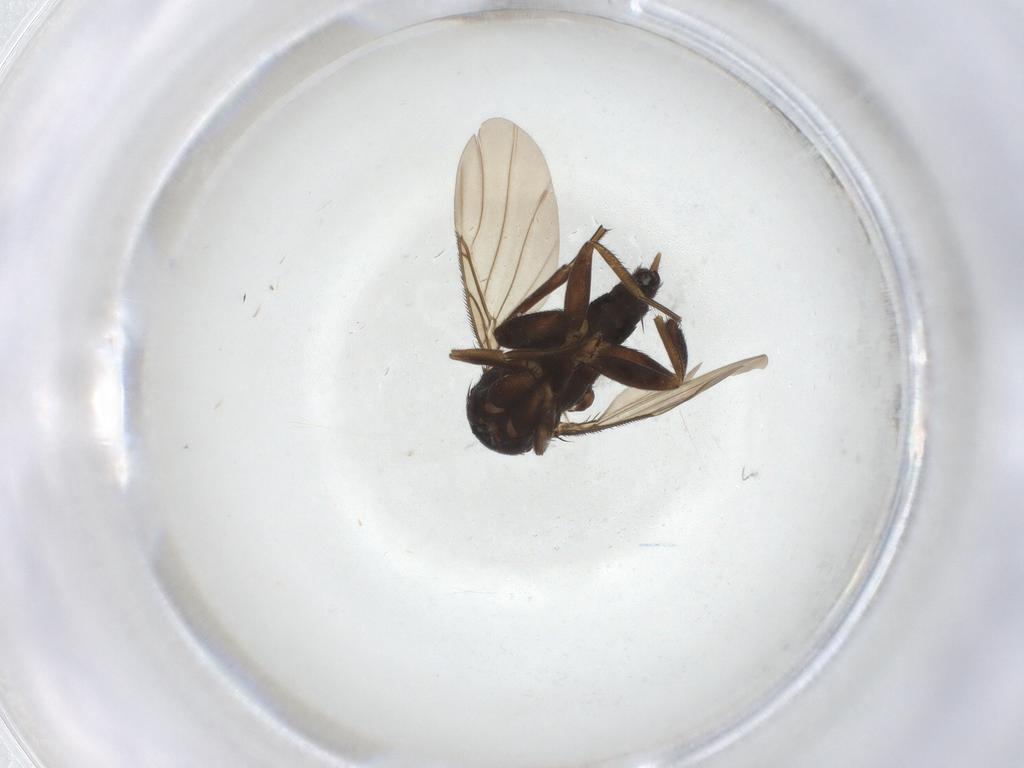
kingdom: Animalia
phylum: Arthropoda
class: Insecta
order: Diptera
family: Phoridae
